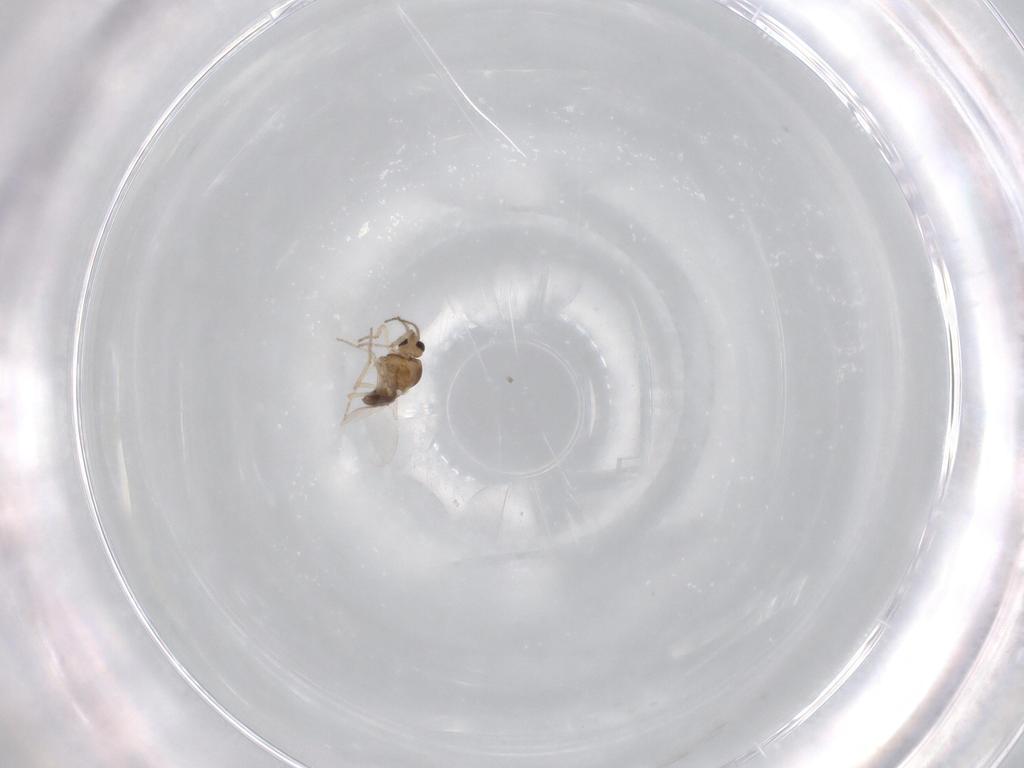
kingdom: Animalia
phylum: Arthropoda
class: Insecta
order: Diptera
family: Ceratopogonidae
